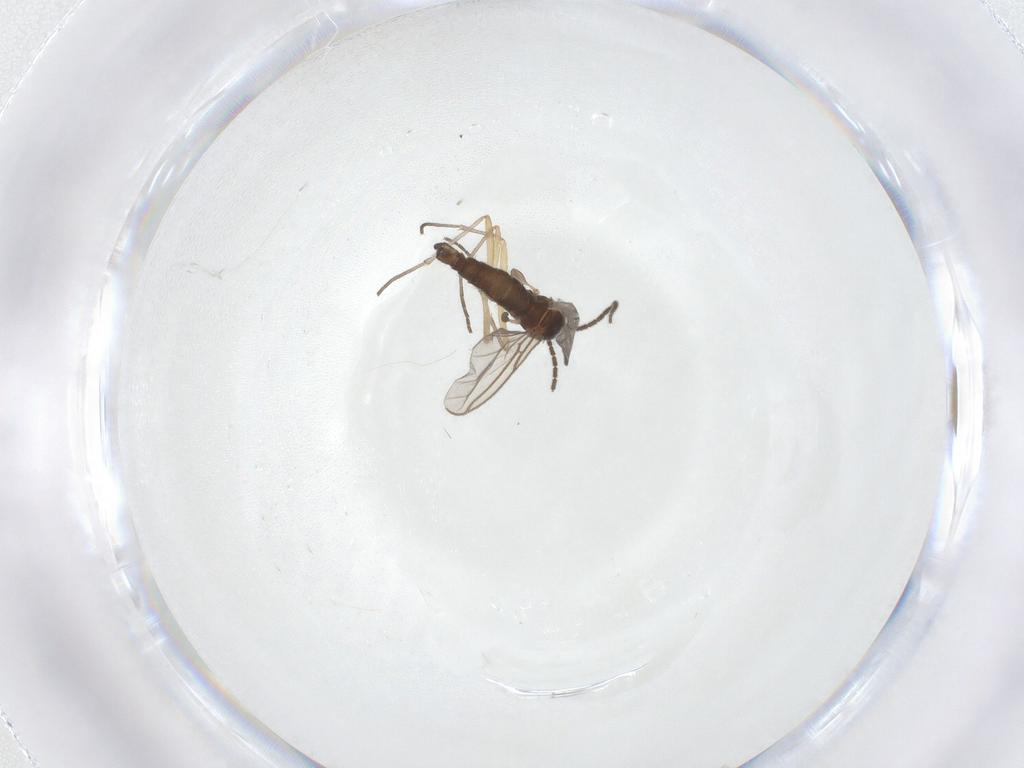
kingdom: Animalia
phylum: Arthropoda
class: Insecta
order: Diptera
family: Sciaridae
